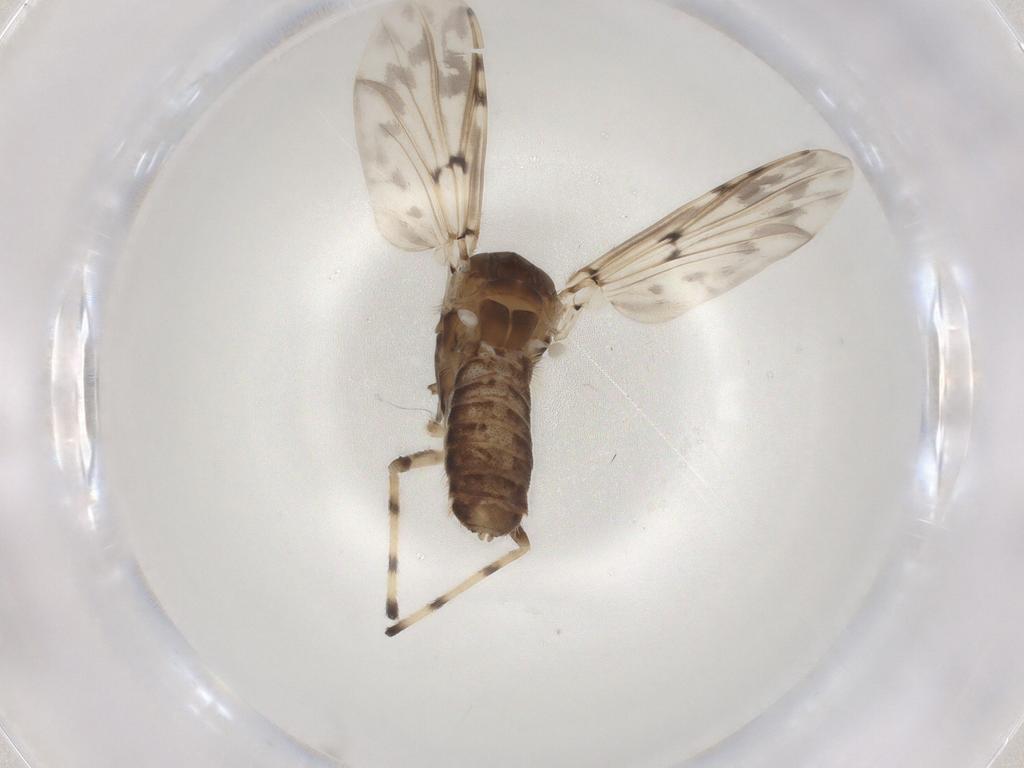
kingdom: Animalia
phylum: Arthropoda
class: Insecta
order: Diptera
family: Chironomidae
